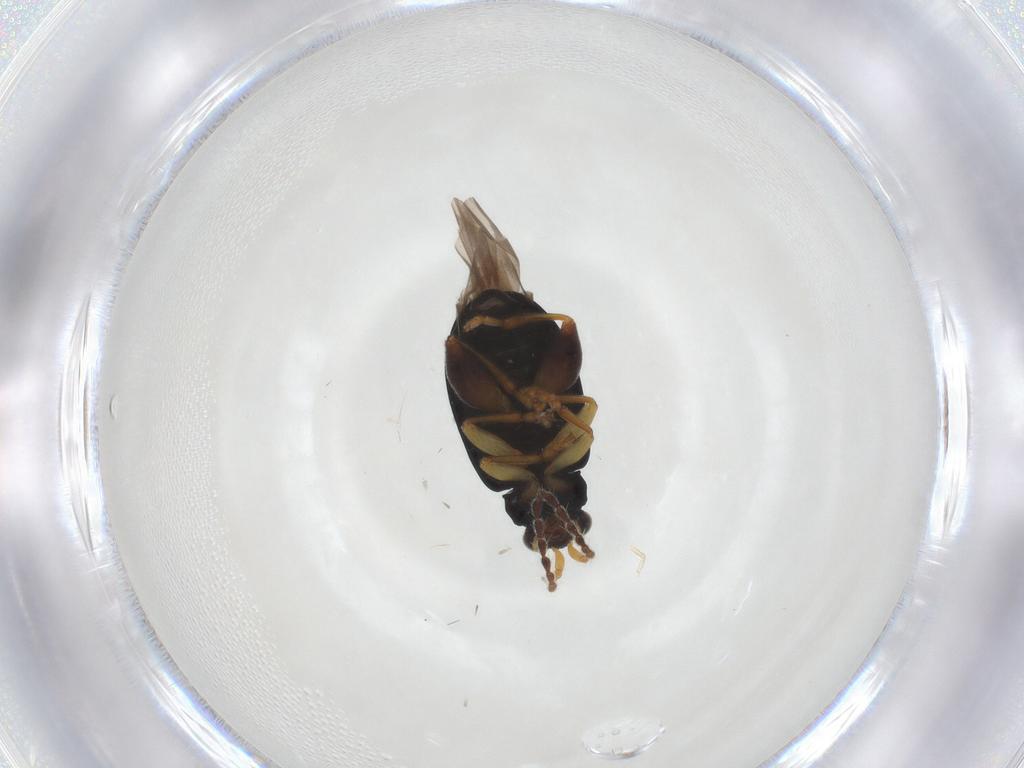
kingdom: Animalia
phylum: Arthropoda
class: Insecta
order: Coleoptera
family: Chrysomelidae
